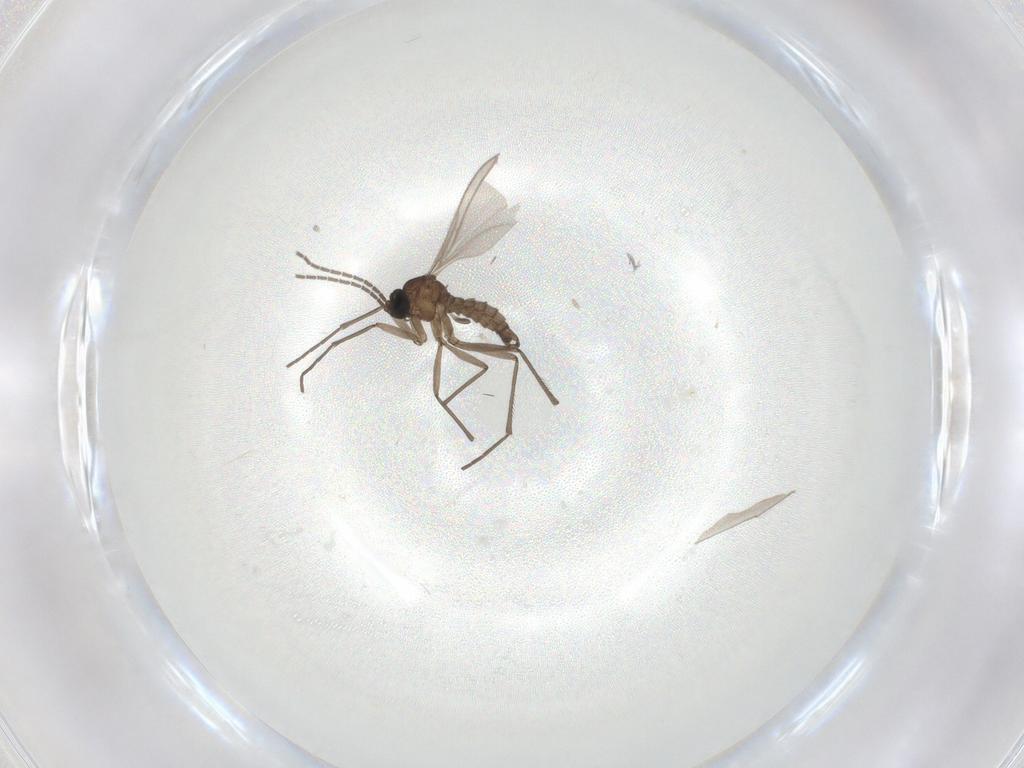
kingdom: Animalia
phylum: Arthropoda
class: Insecta
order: Diptera
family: Sciaridae
